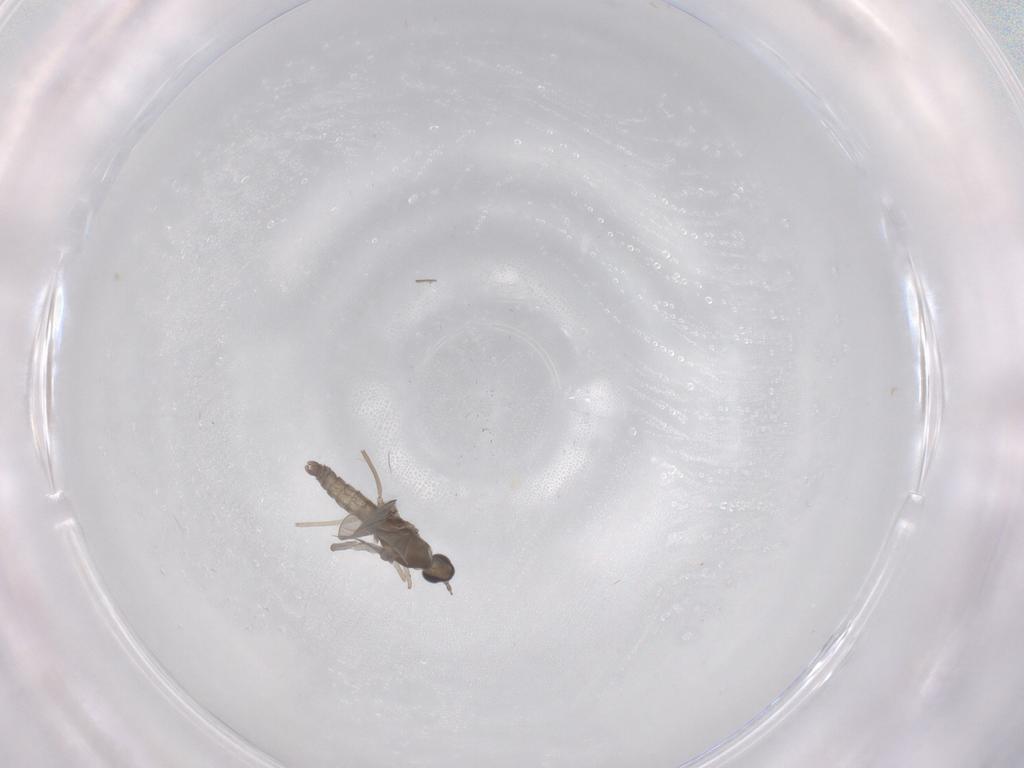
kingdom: Animalia
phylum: Arthropoda
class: Insecta
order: Diptera
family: Cecidomyiidae
